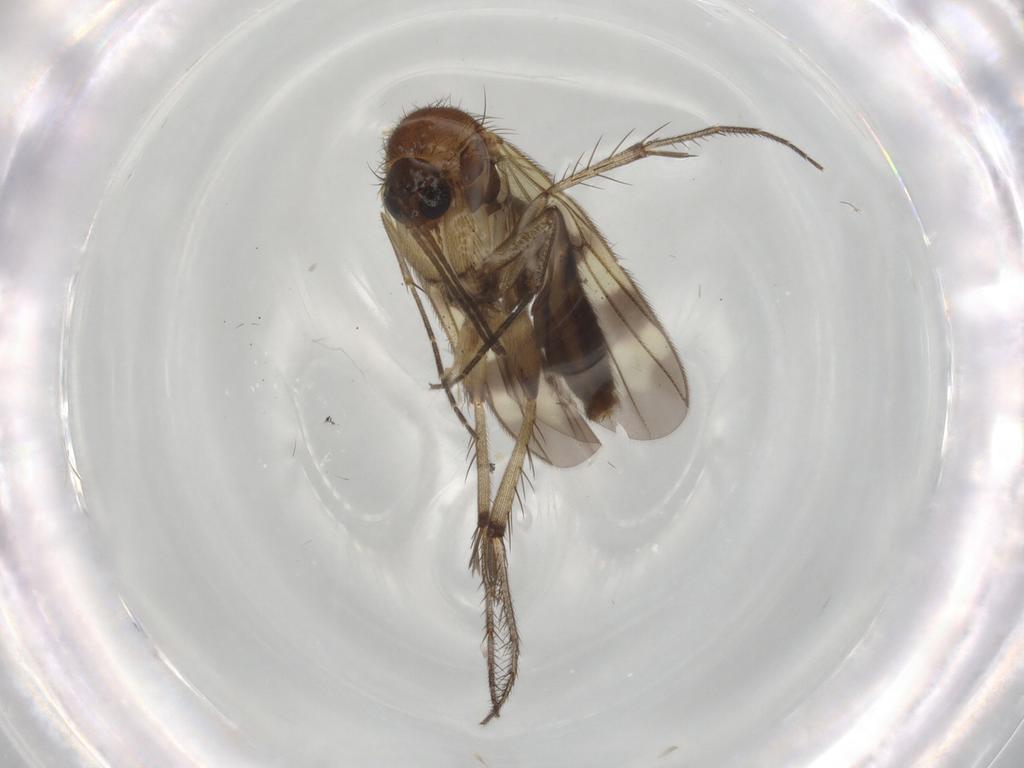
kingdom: Animalia
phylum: Arthropoda
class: Insecta
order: Diptera
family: Mycetophilidae
